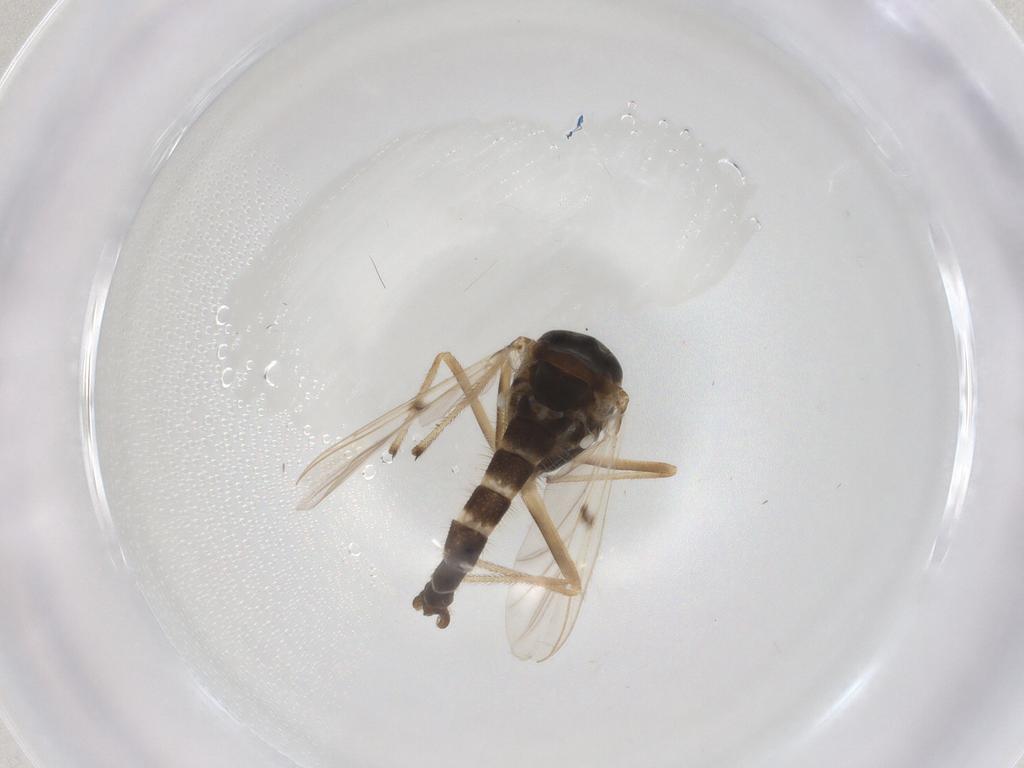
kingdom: Animalia
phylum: Arthropoda
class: Insecta
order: Diptera
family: Chironomidae
